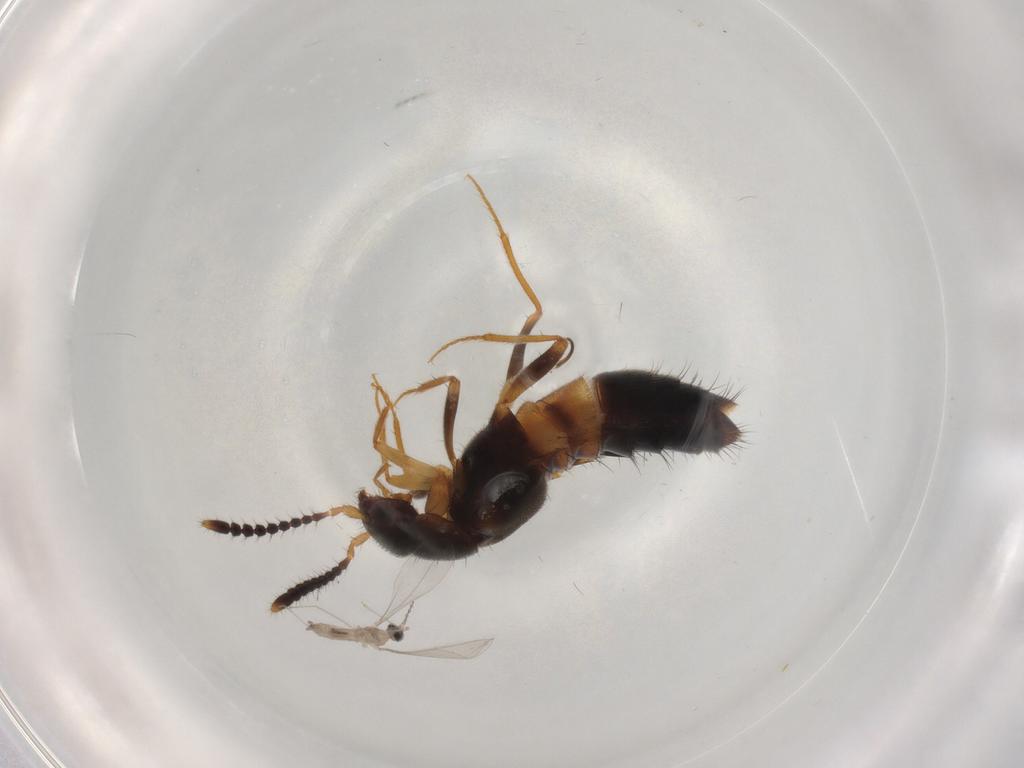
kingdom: Animalia
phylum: Arthropoda
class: Insecta
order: Coleoptera
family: Staphylinidae
